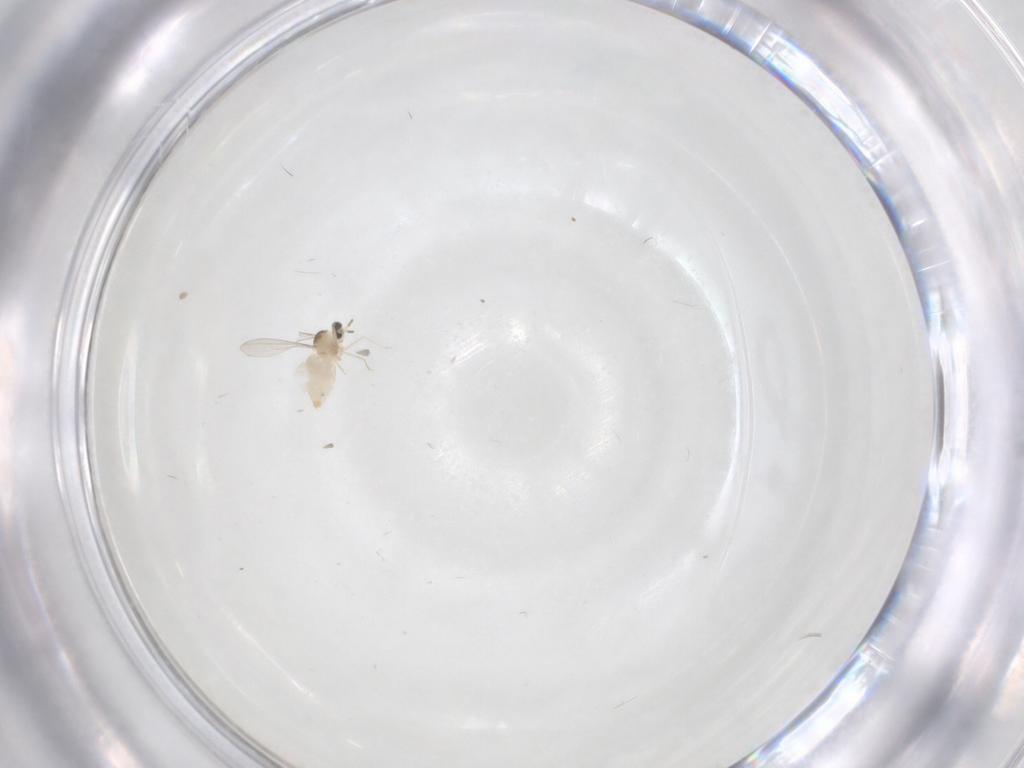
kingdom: Animalia
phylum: Arthropoda
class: Insecta
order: Diptera
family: Cecidomyiidae
